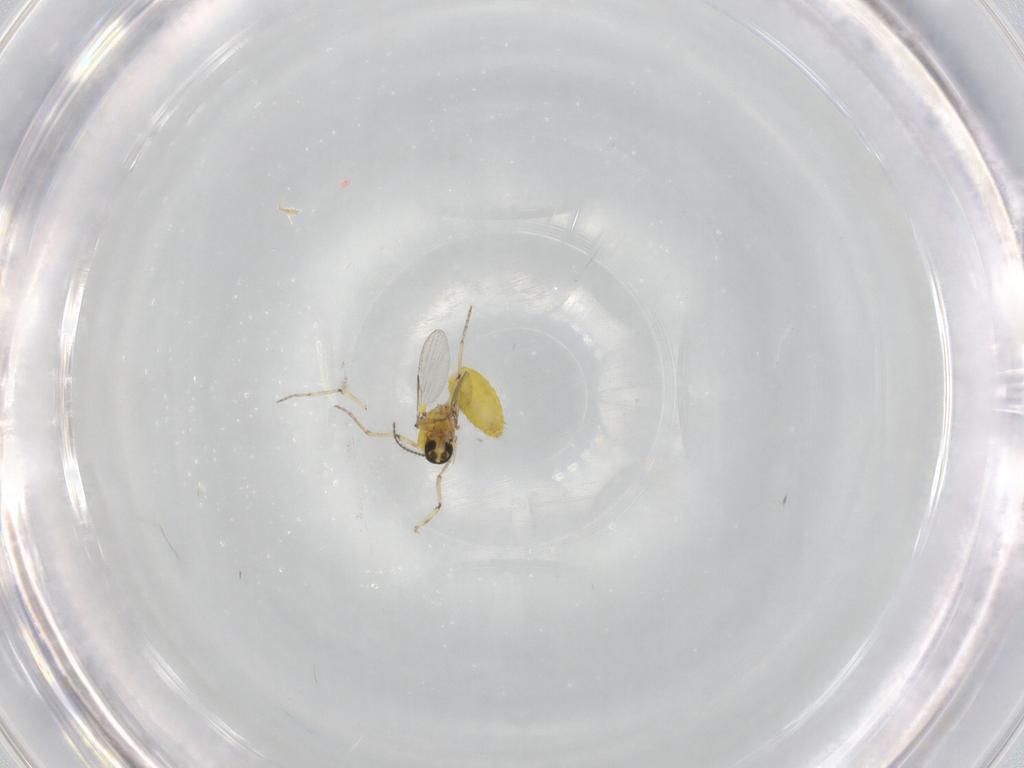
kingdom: Animalia
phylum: Arthropoda
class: Insecta
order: Diptera
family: Ceratopogonidae
